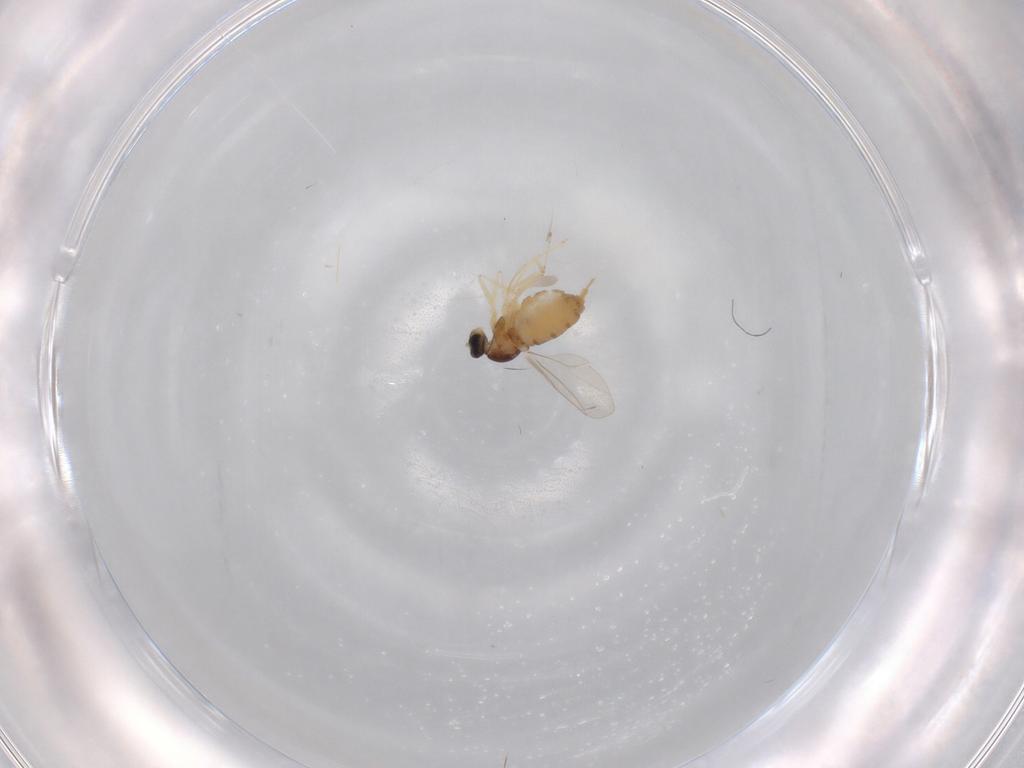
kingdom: Animalia
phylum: Arthropoda
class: Insecta
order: Diptera
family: Cecidomyiidae
